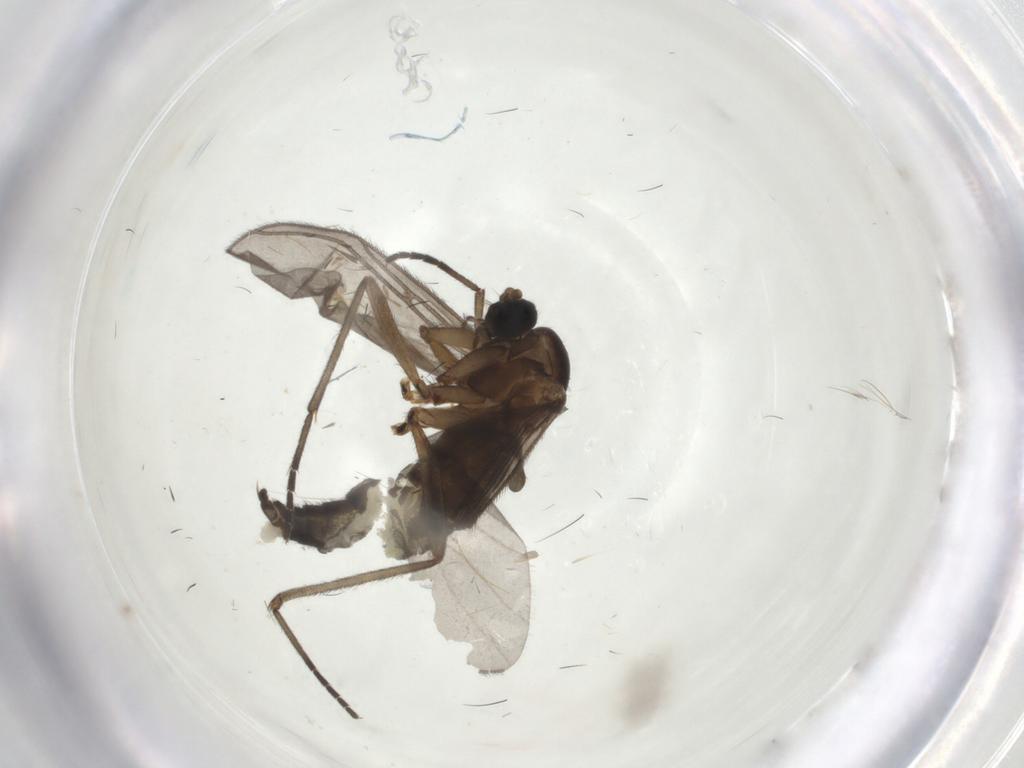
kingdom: Animalia
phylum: Arthropoda
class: Insecta
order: Diptera
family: Sciaridae
